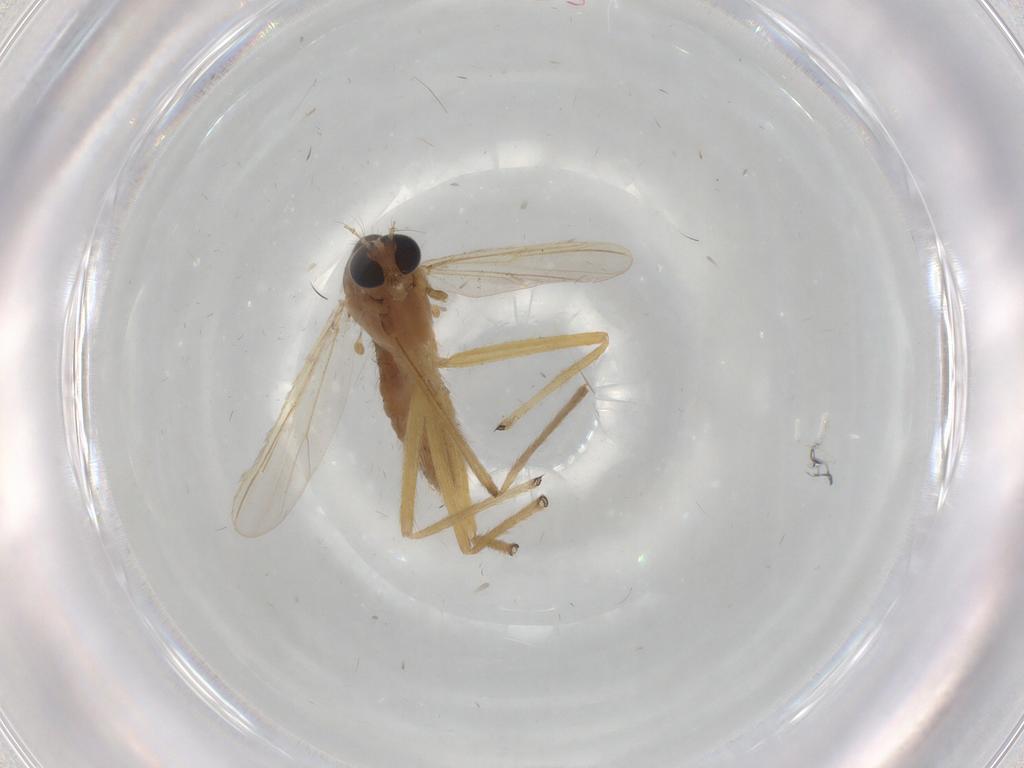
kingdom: Animalia
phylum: Arthropoda
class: Insecta
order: Diptera
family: Chironomidae
